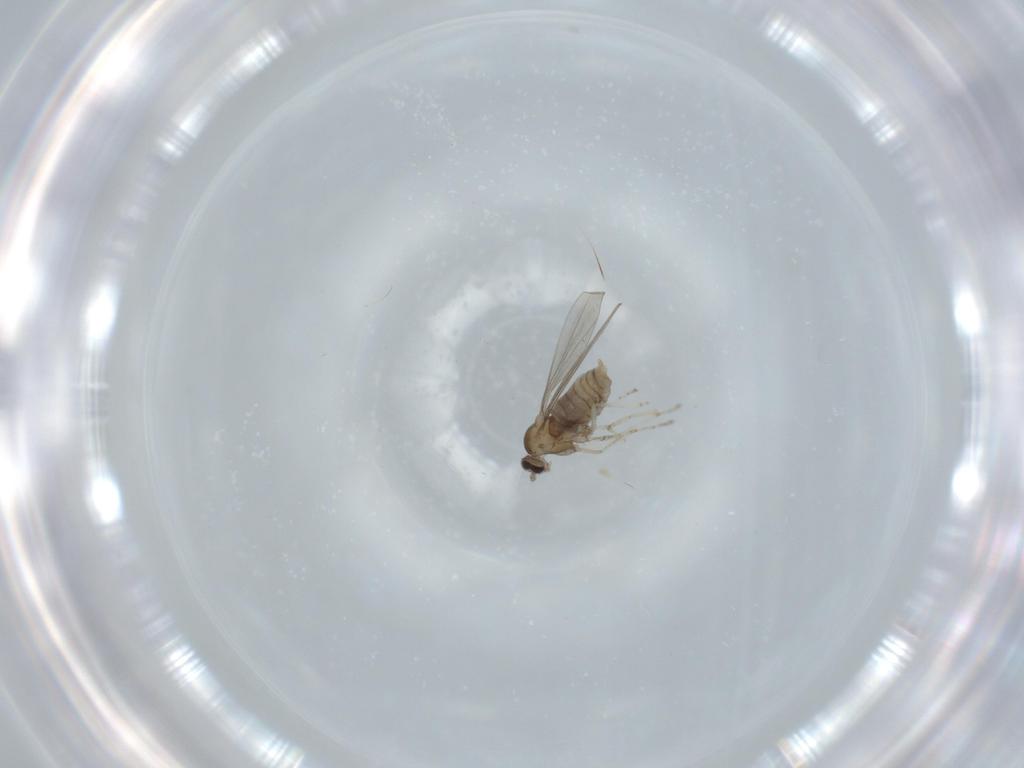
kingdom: Animalia
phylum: Arthropoda
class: Insecta
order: Diptera
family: Cecidomyiidae
